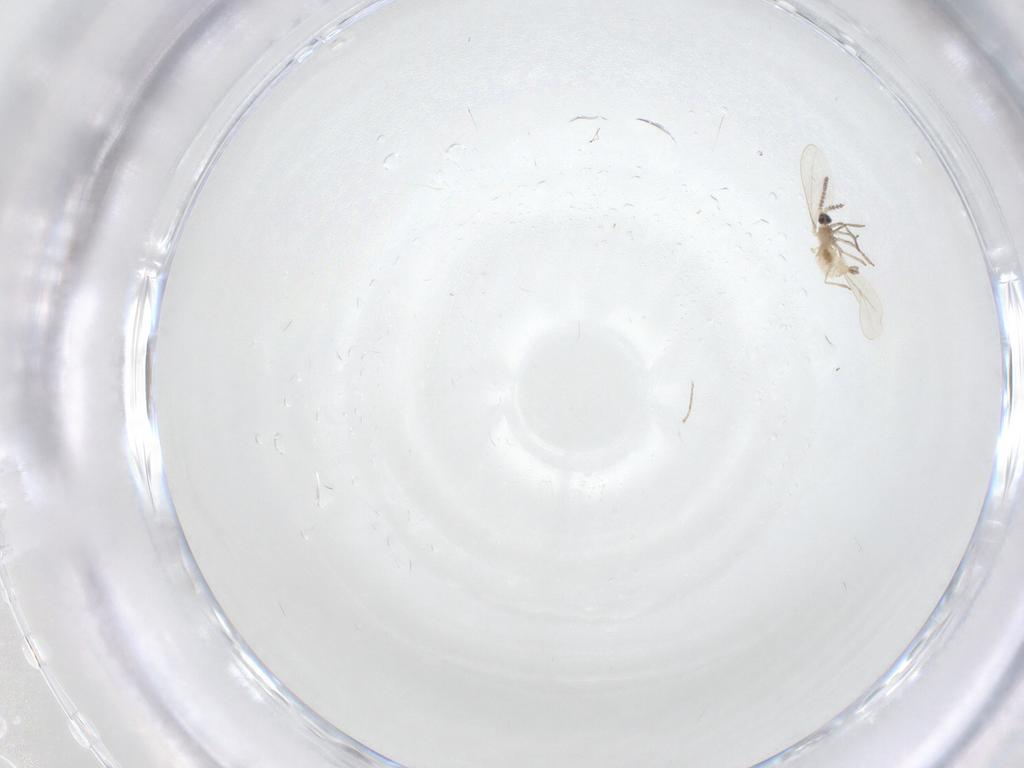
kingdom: Animalia
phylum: Arthropoda
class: Insecta
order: Diptera
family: Cecidomyiidae
